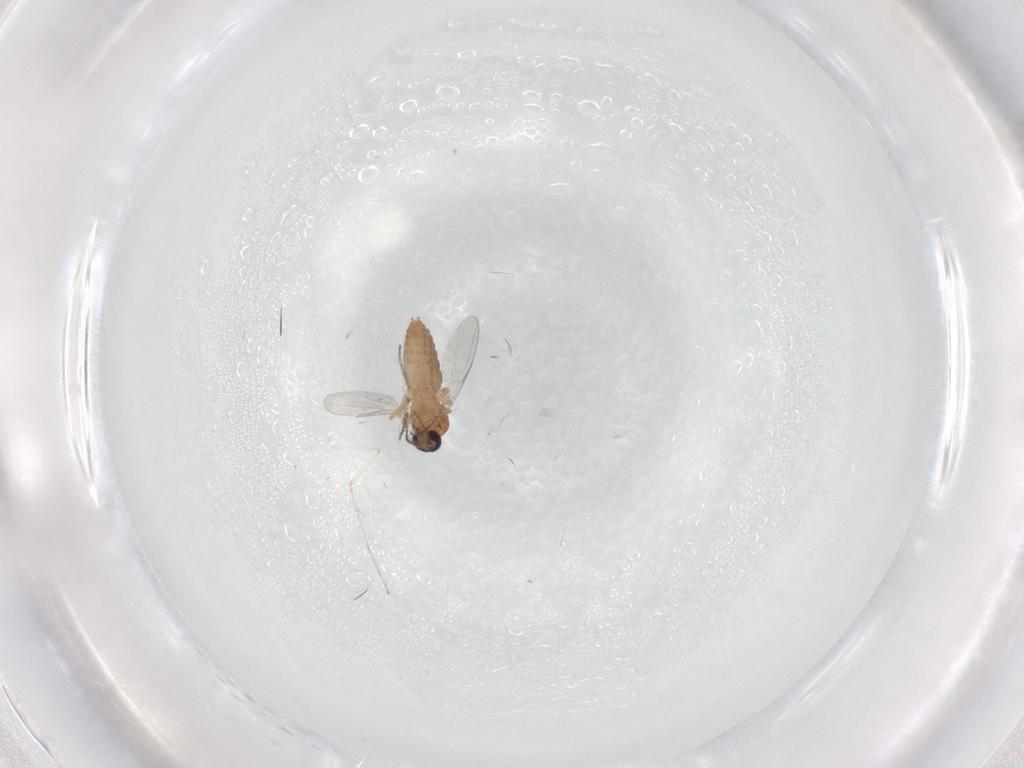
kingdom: Animalia
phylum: Arthropoda
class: Insecta
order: Diptera
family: Ceratopogonidae
